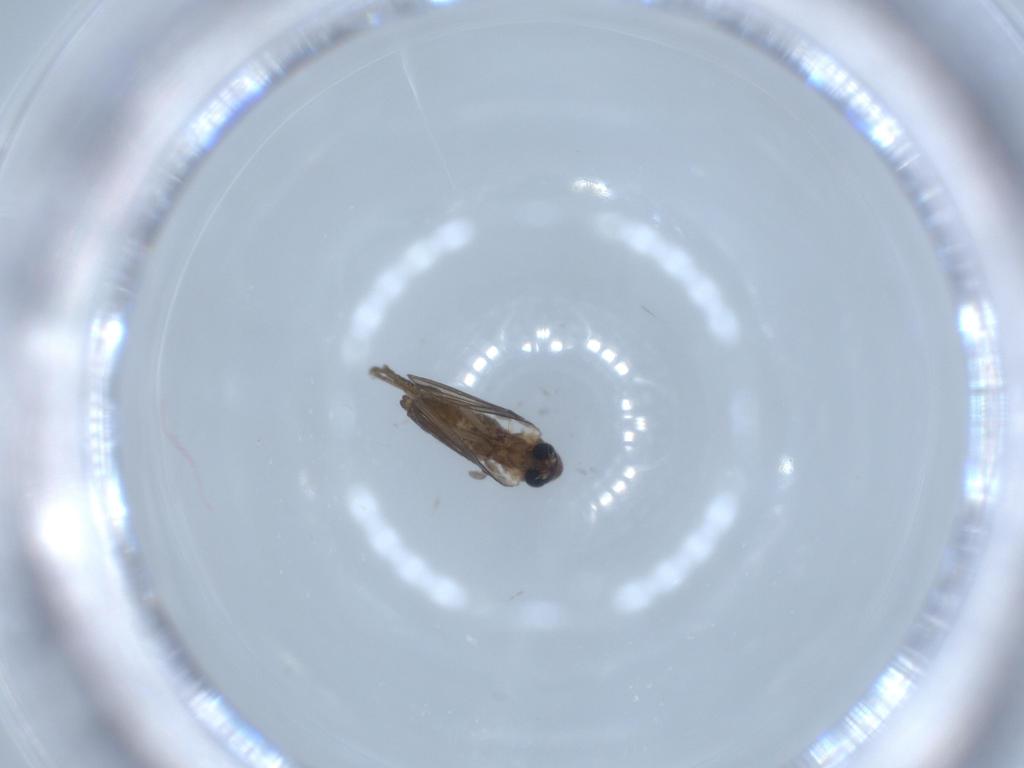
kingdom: Animalia
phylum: Arthropoda
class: Insecta
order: Diptera
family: Psychodidae
